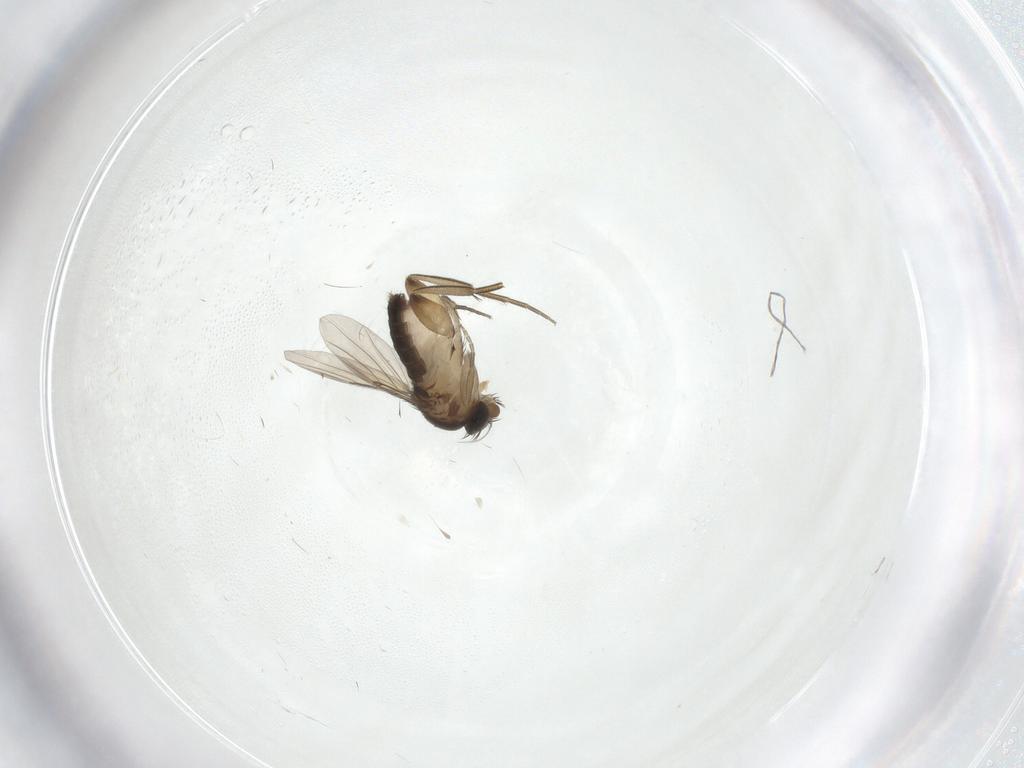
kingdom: Animalia
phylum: Arthropoda
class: Insecta
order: Diptera
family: Phoridae
